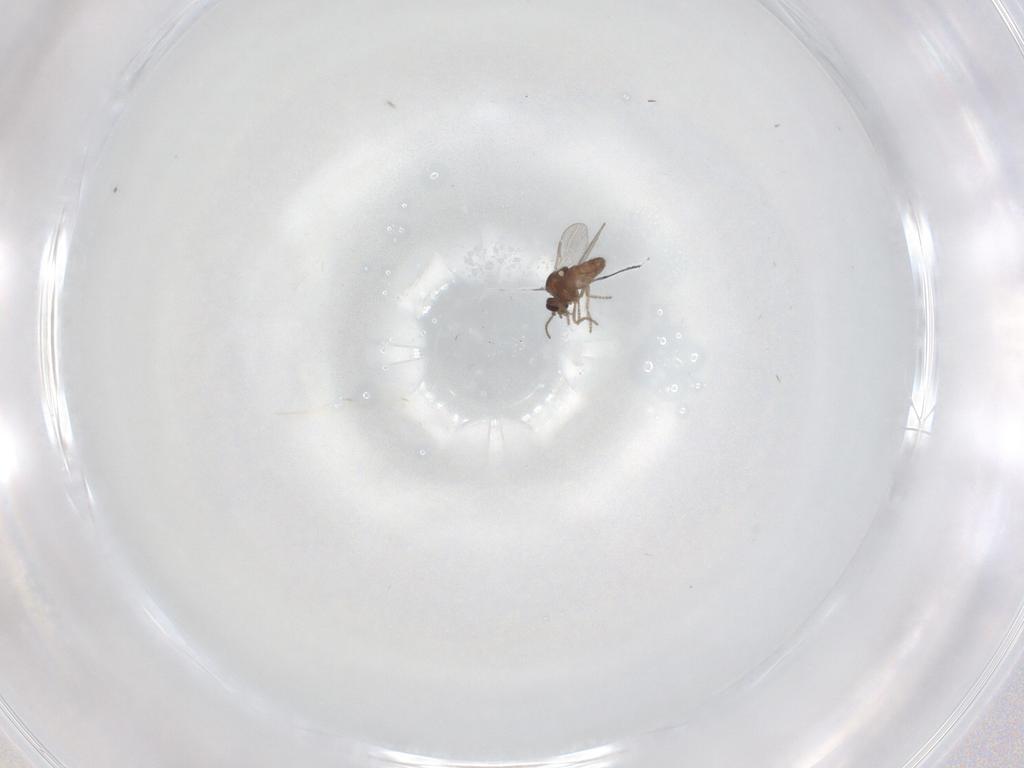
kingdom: Animalia
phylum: Arthropoda
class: Insecta
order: Diptera
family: Ceratopogonidae
